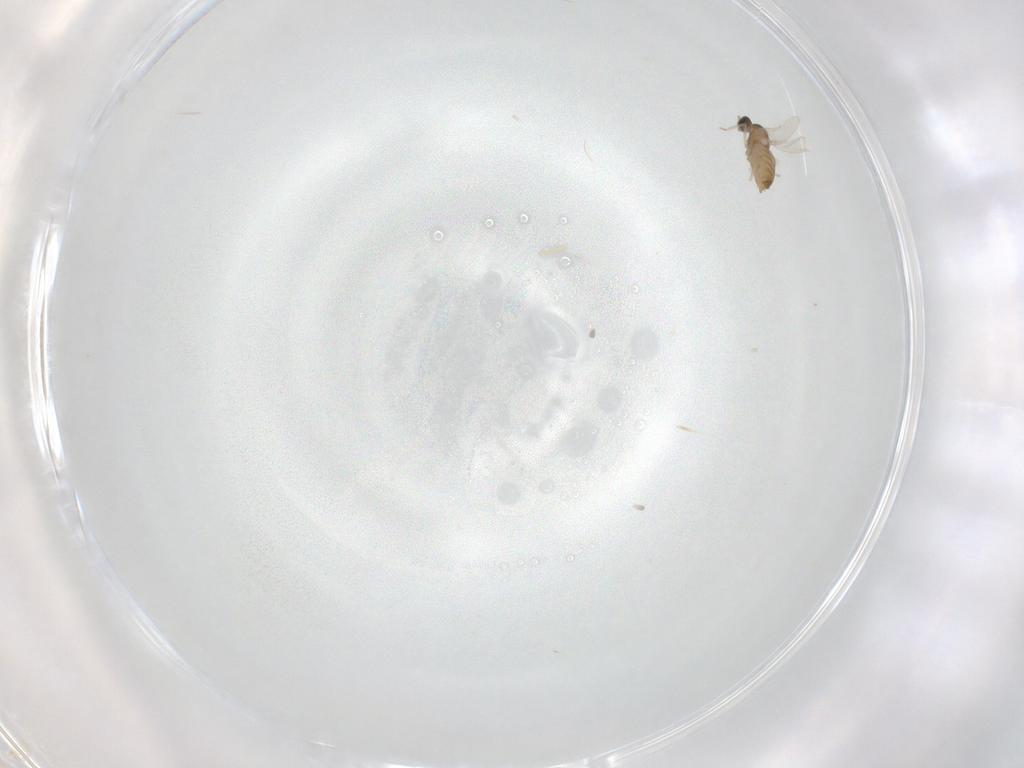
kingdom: Animalia
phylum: Arthropoda
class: Insecta
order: Diptera
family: Cecidomyiidae
